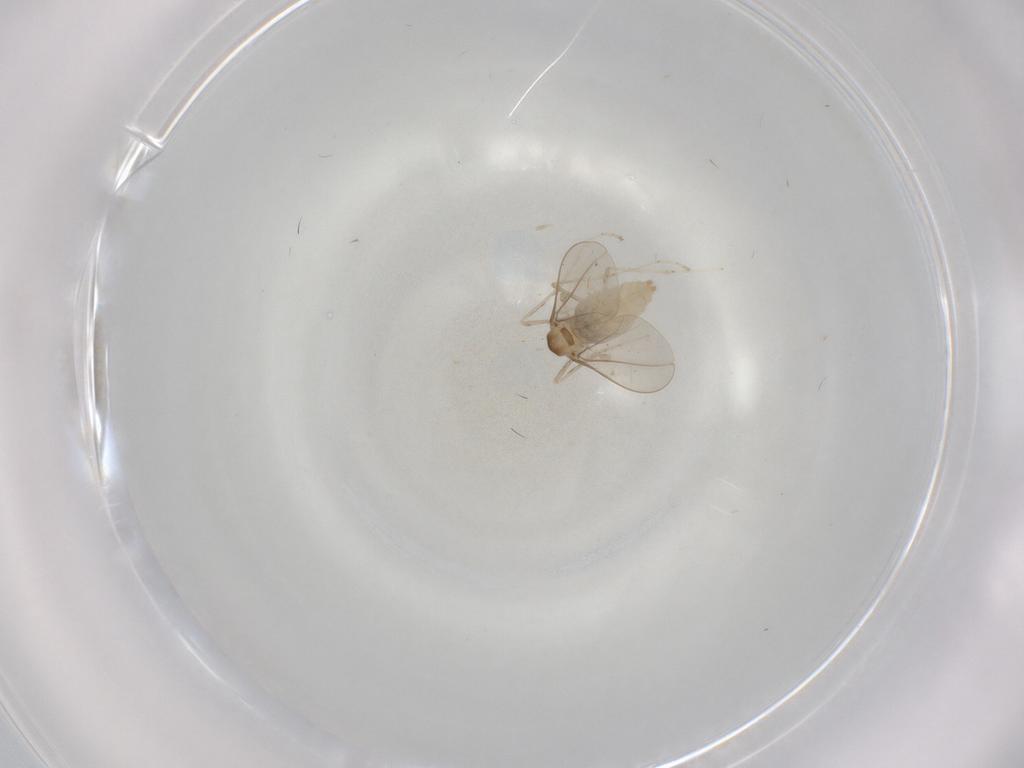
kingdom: Animalia
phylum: Arthropoda
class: Insecta
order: Diptera
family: Cecidomyiidae
